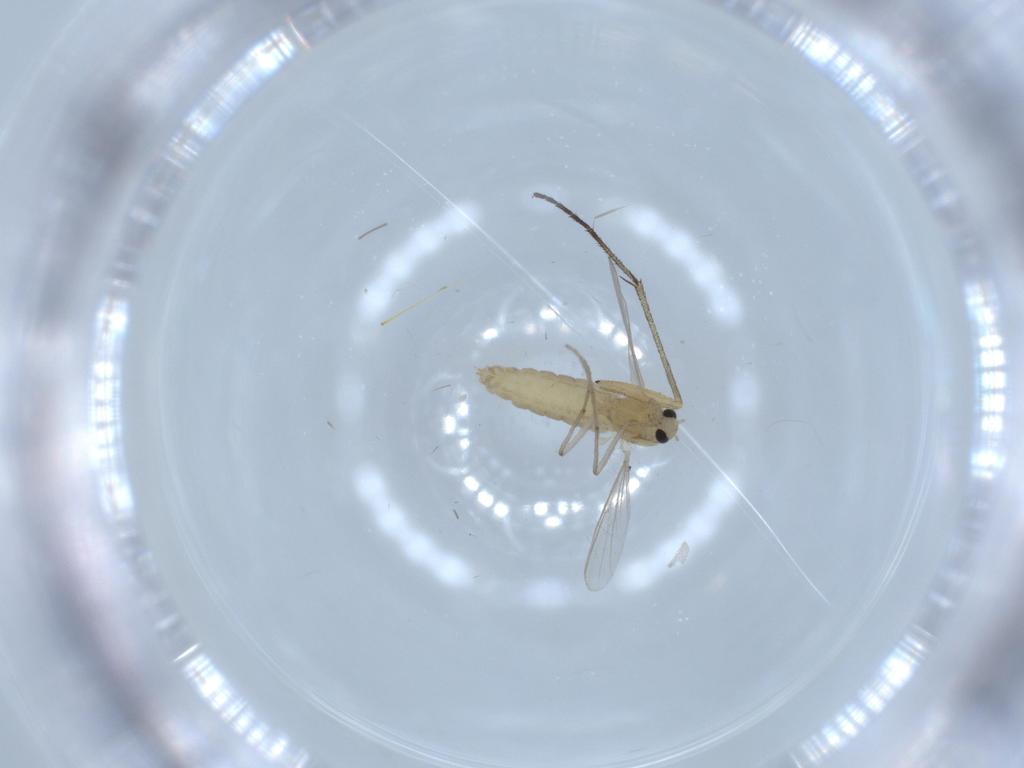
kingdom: Animalia
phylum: Arthropoda
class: Insecta
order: Diptera
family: Chironomidae
